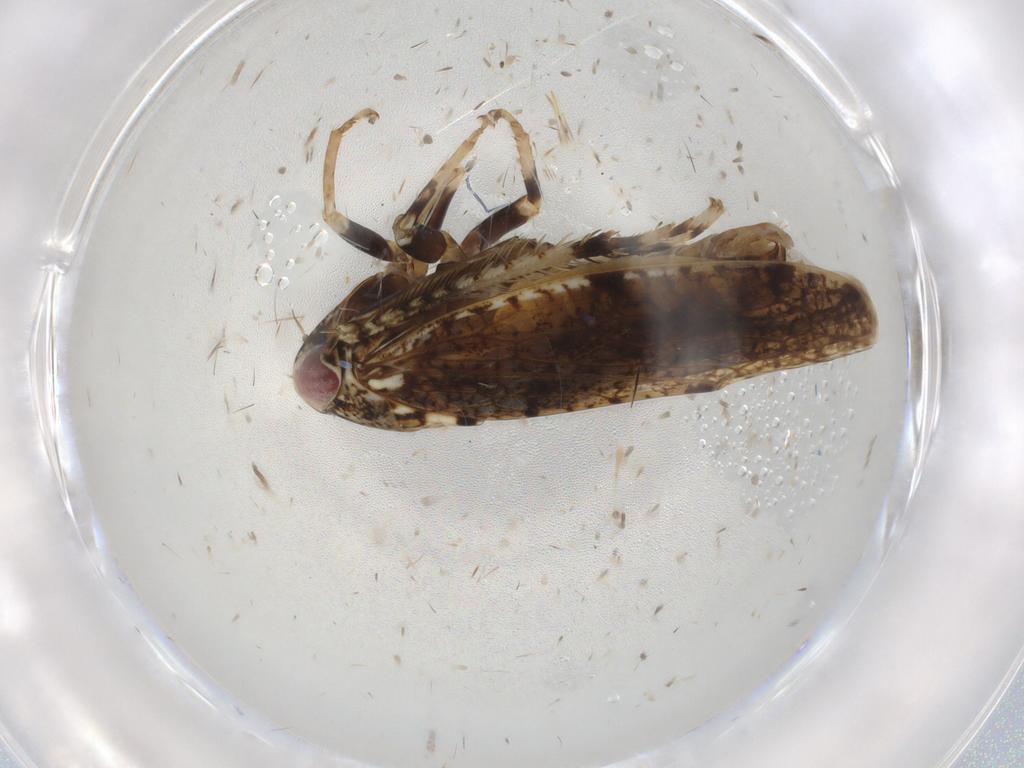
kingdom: Animalia
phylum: Arthropoda
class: Insecta
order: Hemiptera
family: Cicadellidae
